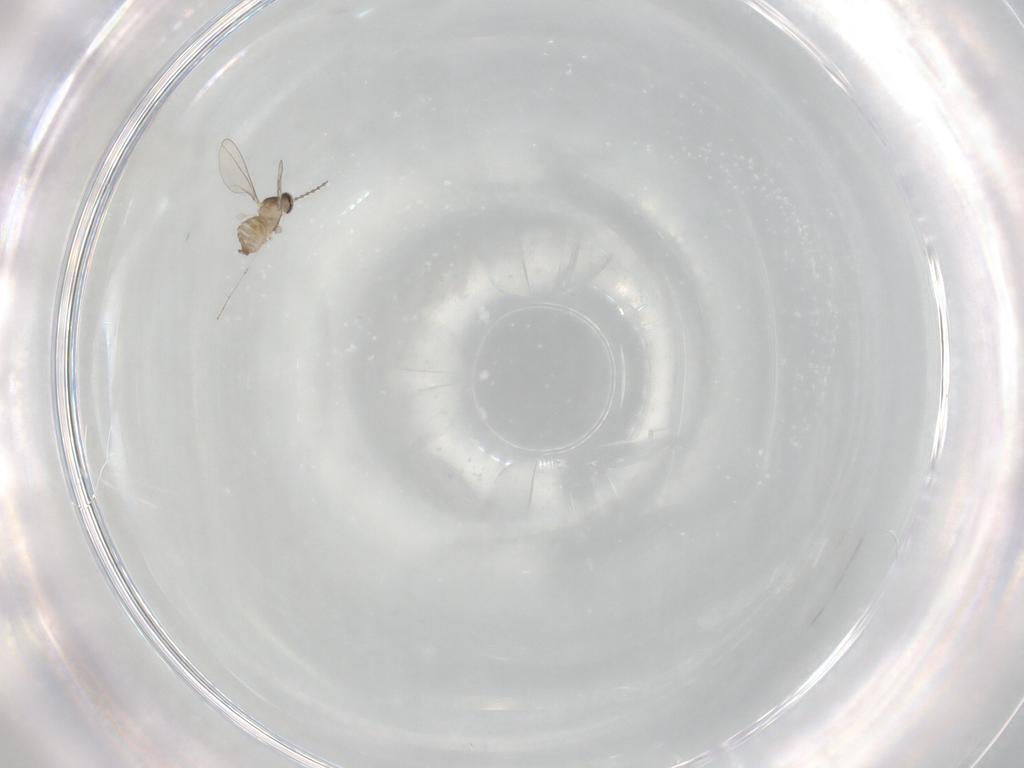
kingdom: Animalia
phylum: Arthropoda
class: Insecta
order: Diptera
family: Cecidomyiidae
